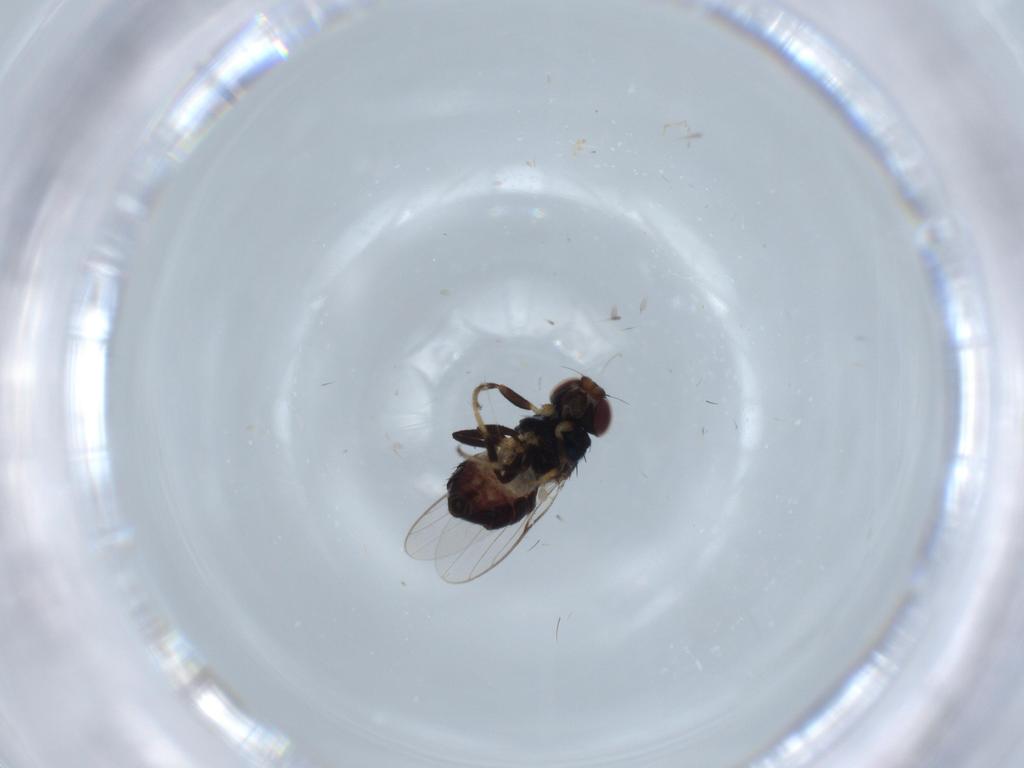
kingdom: Animalia
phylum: Arthropoda
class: Insecta
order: Diptera
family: Chloropidae
